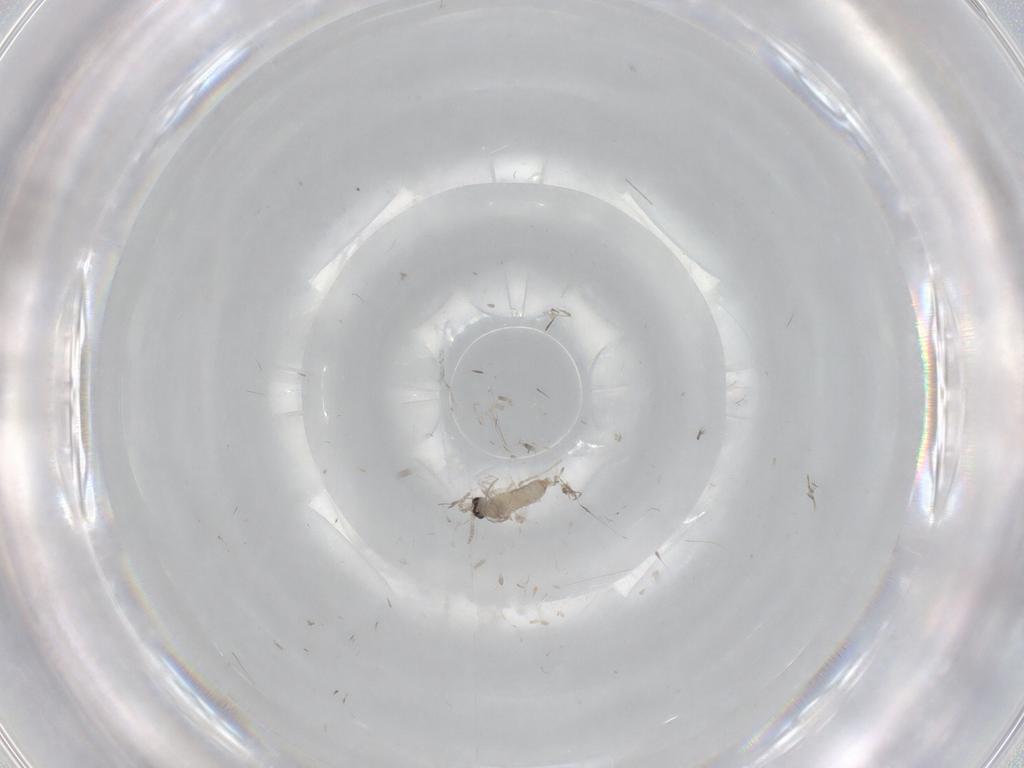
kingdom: Animalia
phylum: Arthropoda
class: Insecta
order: Diptera
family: Cecidomyiidae
